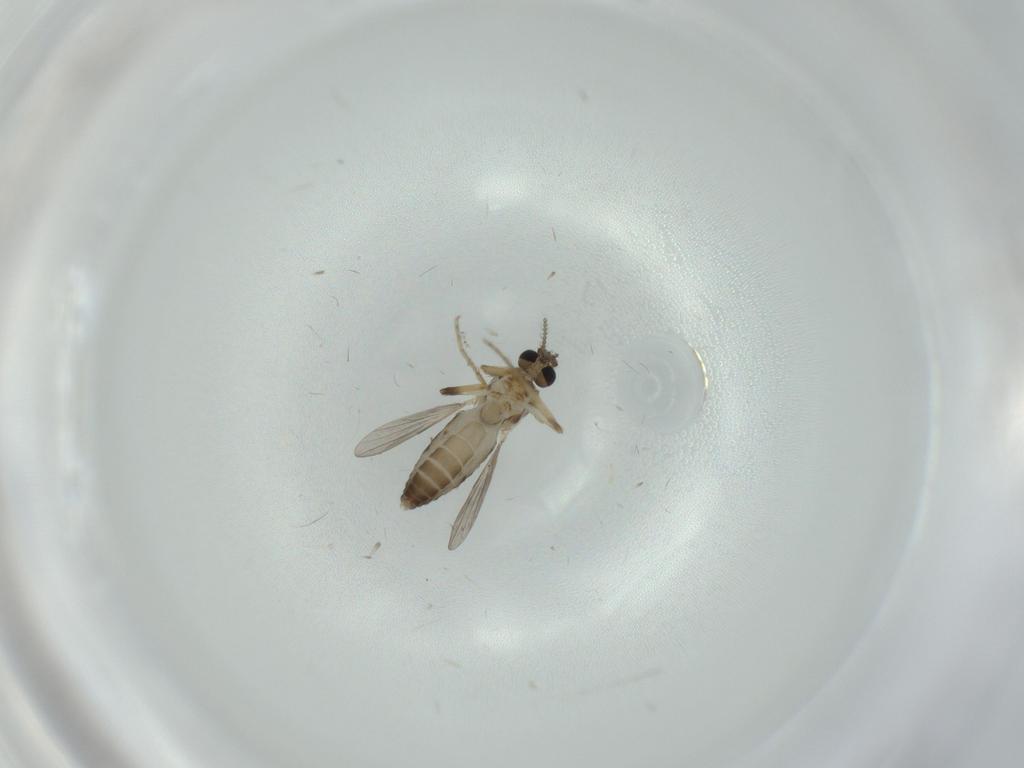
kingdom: Animalia
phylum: Arthropoda
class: Insecta
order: Diptera
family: Ceratopogonidae
